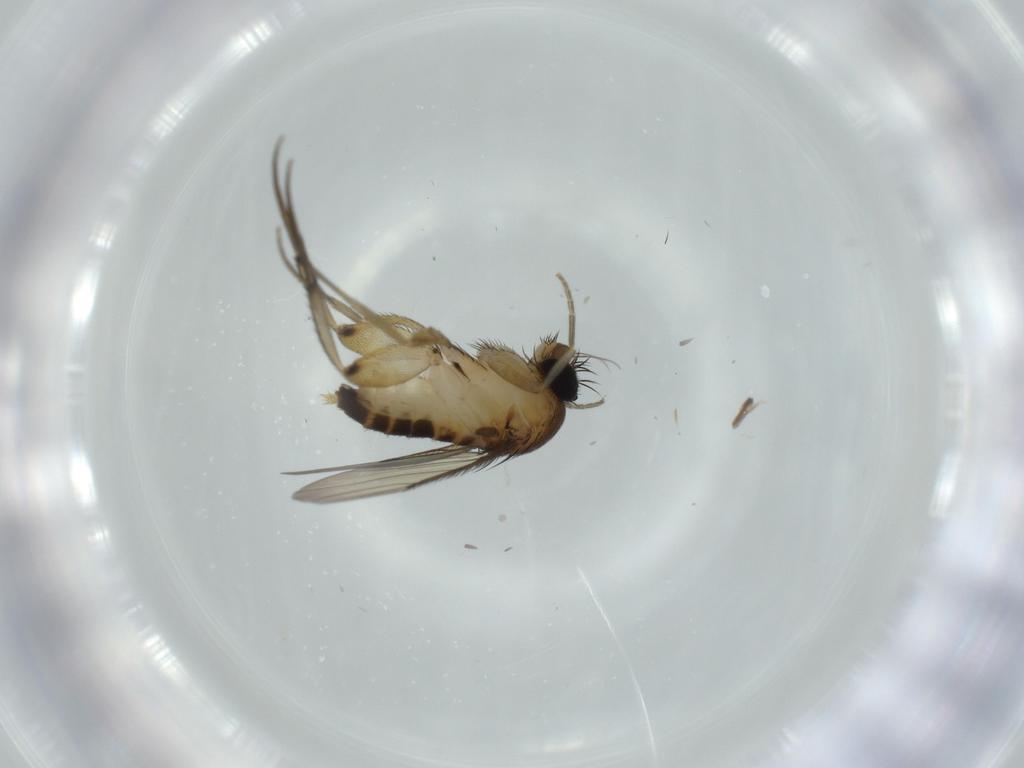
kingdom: Animalia
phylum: Arthropoda
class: Insecta
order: Diptera
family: Phoridae
